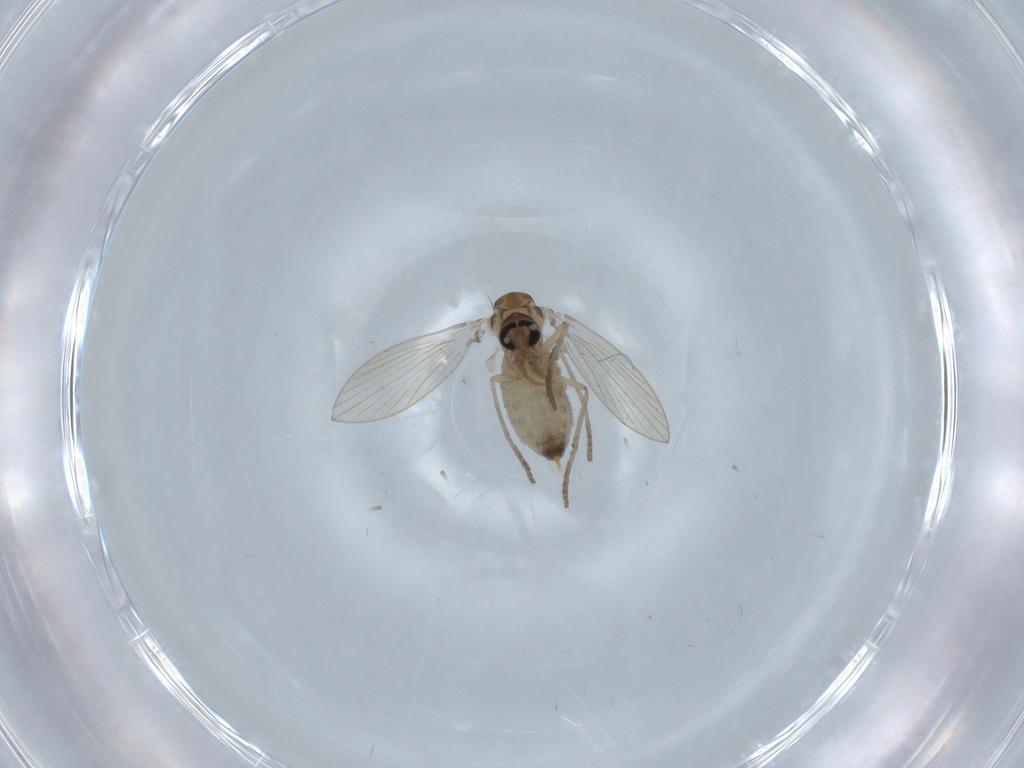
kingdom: Animalia
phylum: Arthropoda
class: Insecta
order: Diptera
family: Psychodidae
